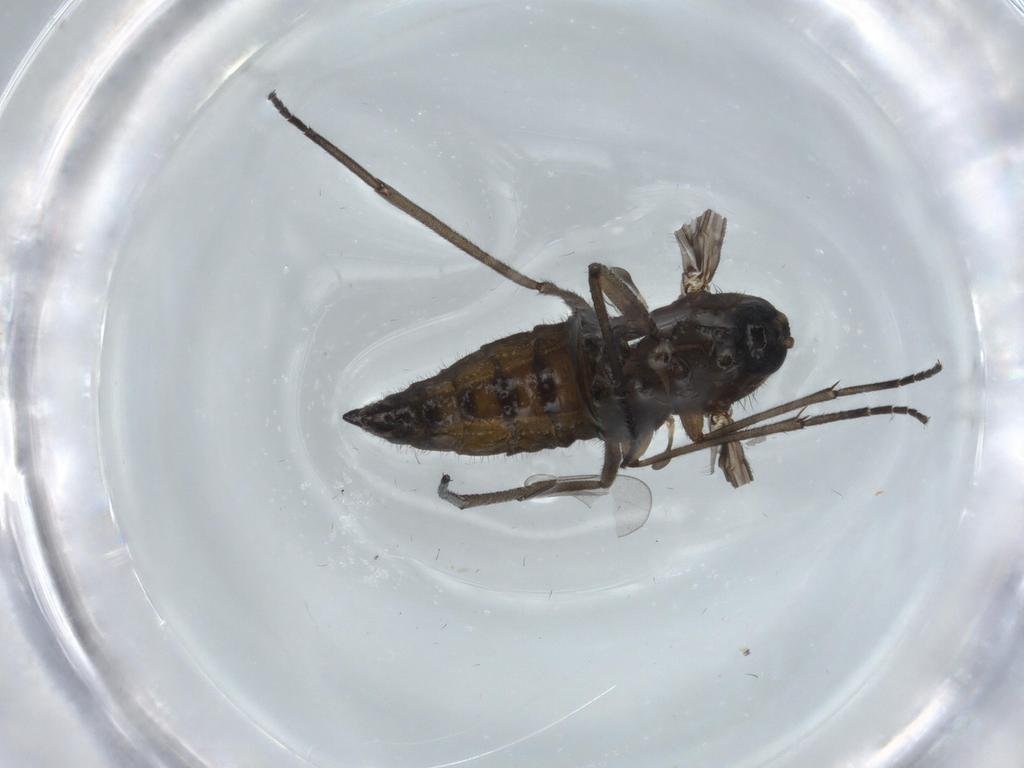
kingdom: Animalia
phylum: Arthropoda
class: Insecta
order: Diptera
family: Sciaridae
